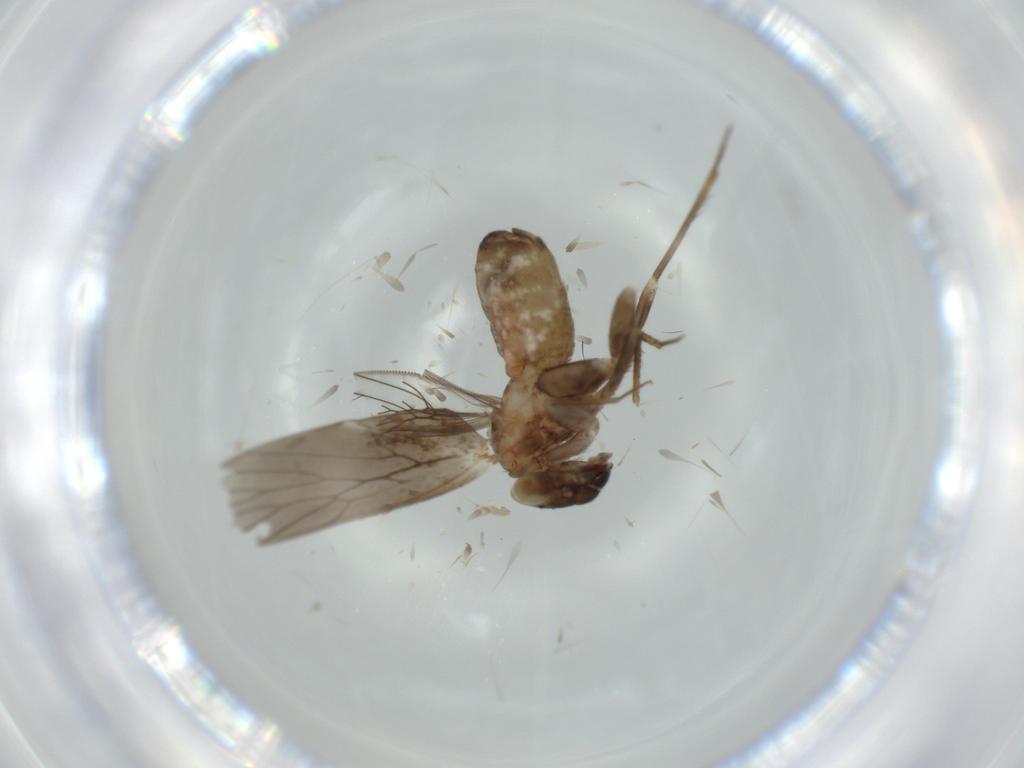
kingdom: Animalia
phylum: Arthropoda
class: Insecta
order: Psocodea
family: Lepidopsocidae
